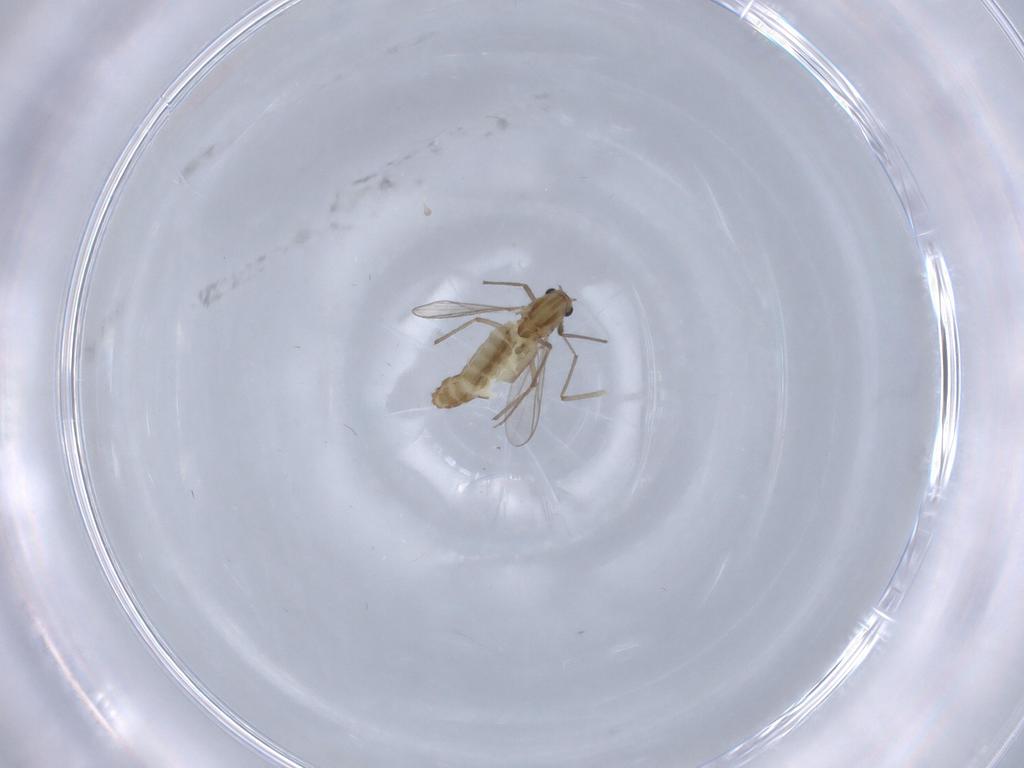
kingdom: Animalia
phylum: Arthropoda
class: Insecta
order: Diptera
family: Chironomidae
